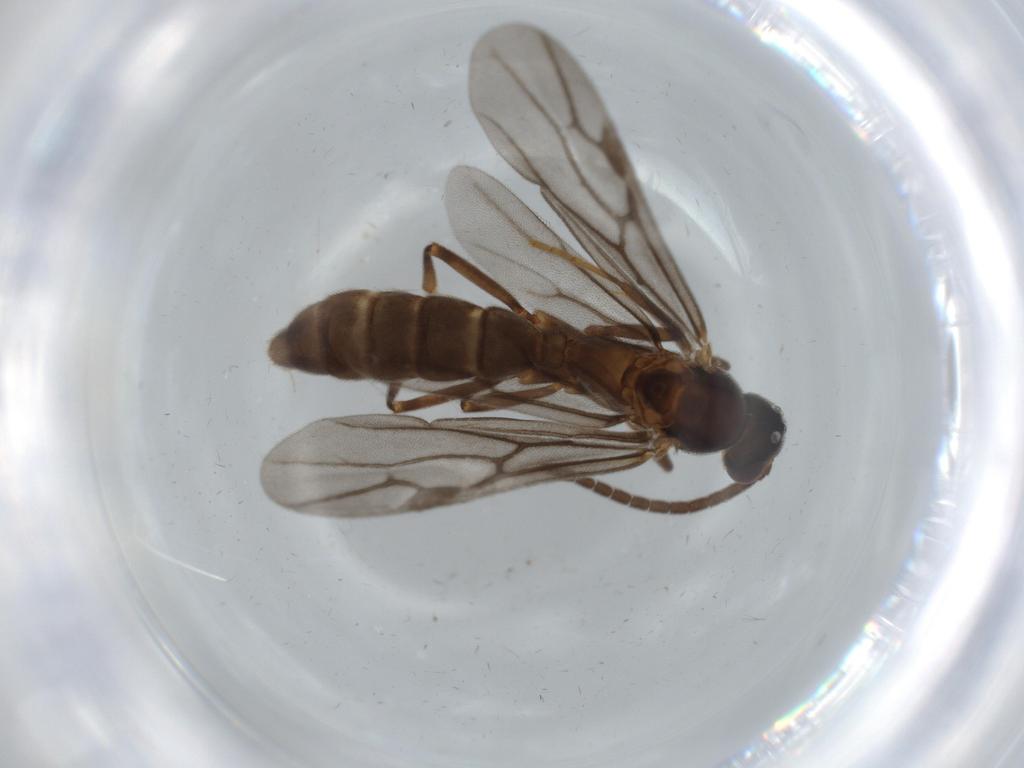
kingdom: Animalia
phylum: Arthropoda
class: Insecta
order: Hymenoptera
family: Formicidae
